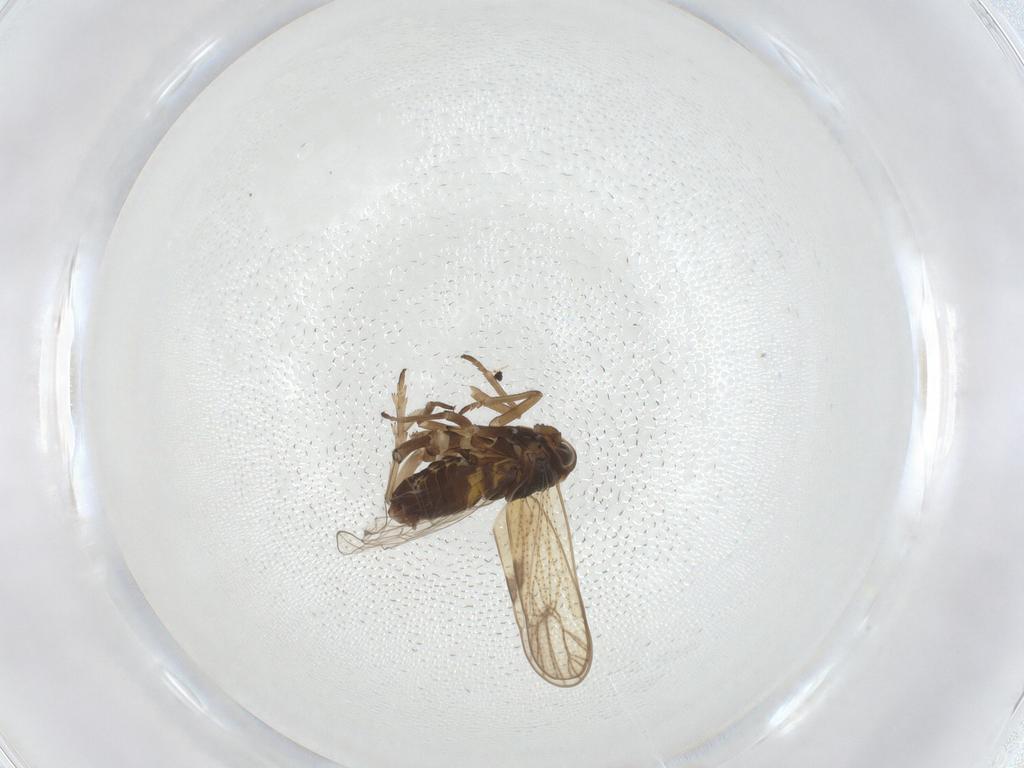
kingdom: Animalia
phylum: Arthropoda
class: Insecta
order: Hemiptera
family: Delphacidae
